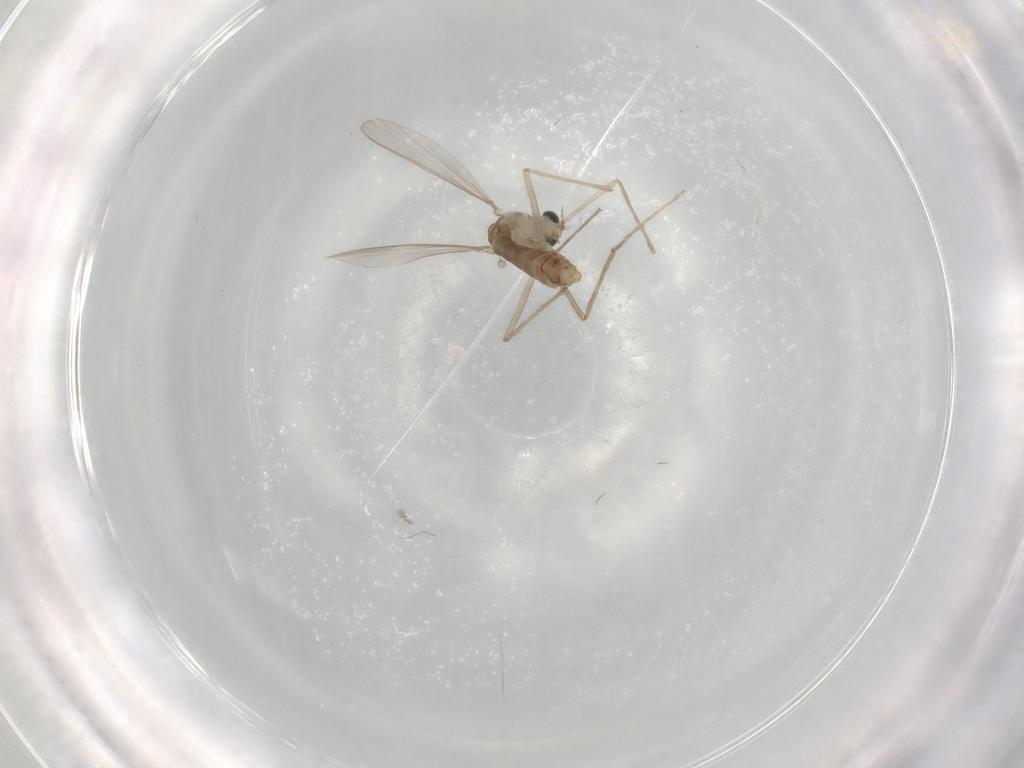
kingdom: Animalia
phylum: Arthropoda
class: Insecta
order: Diptera
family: Chironomidae
